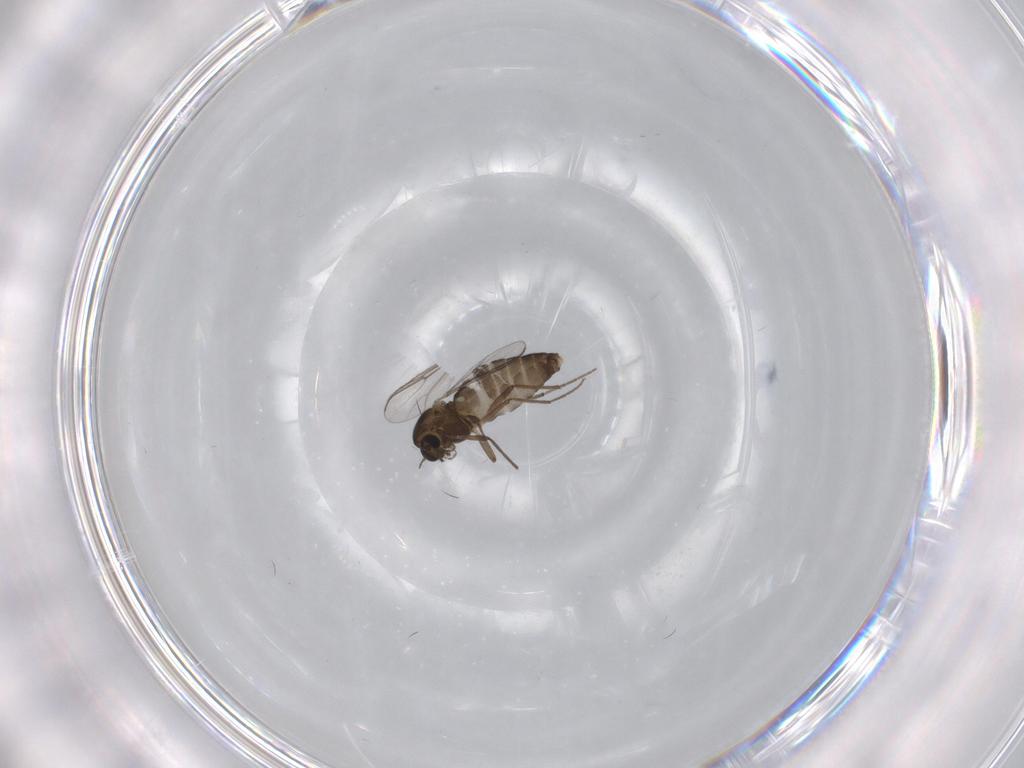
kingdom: Animalia
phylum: Arthropoda
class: Insecta
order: Diptera
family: Chironomidae
